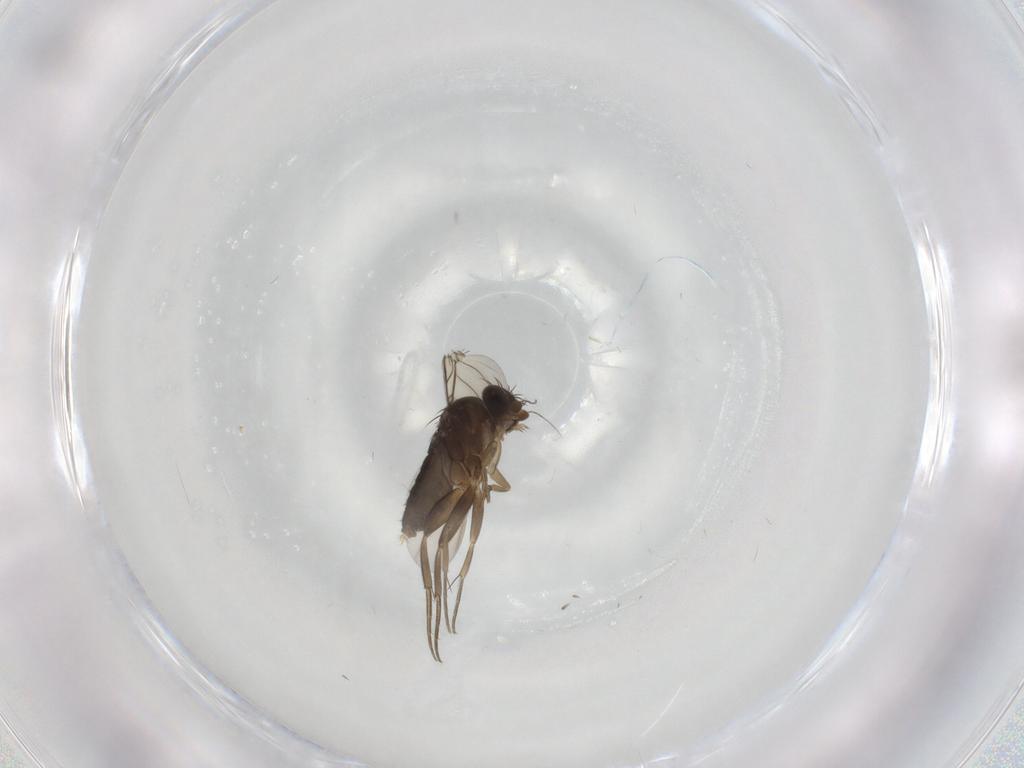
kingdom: Animalia
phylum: Arthropoda
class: Insecta
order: Diptera
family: Phoridae
